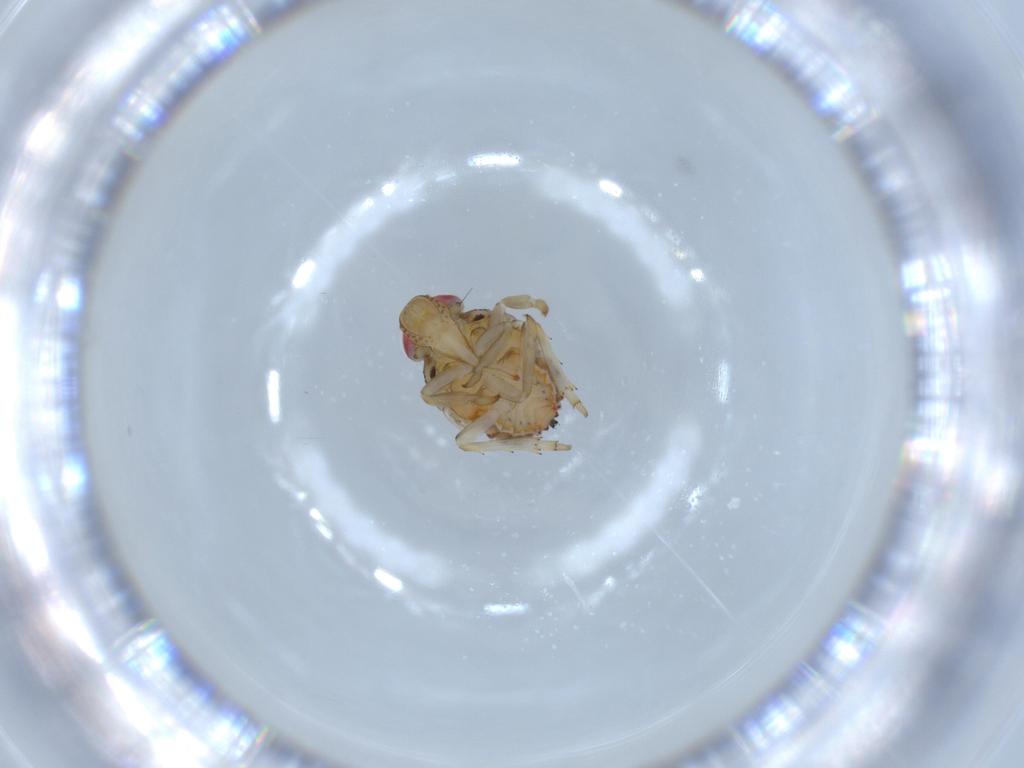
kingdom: Animalia
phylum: Arthropoda
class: Insecta
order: Hemiptera
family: Issidae
